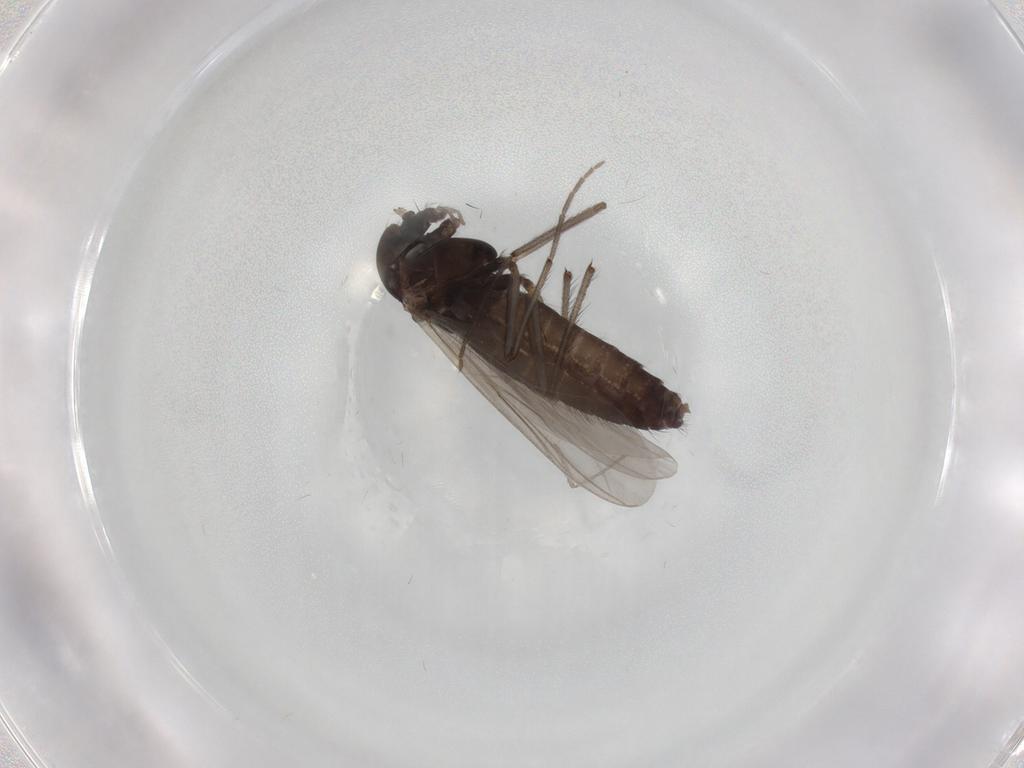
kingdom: Animalia
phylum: Arthropoda
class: Insecta
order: Diptera
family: Chironomidae
